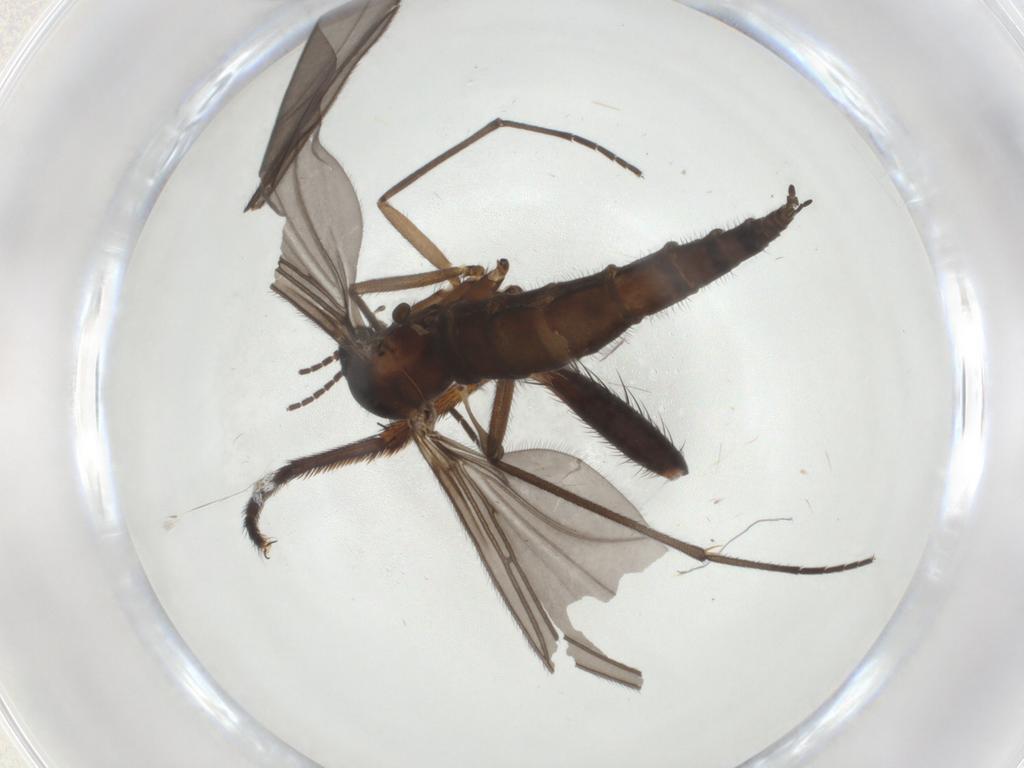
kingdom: Animalia
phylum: Arthropoda
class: Insecta
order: Diptera
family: Sciaridae
